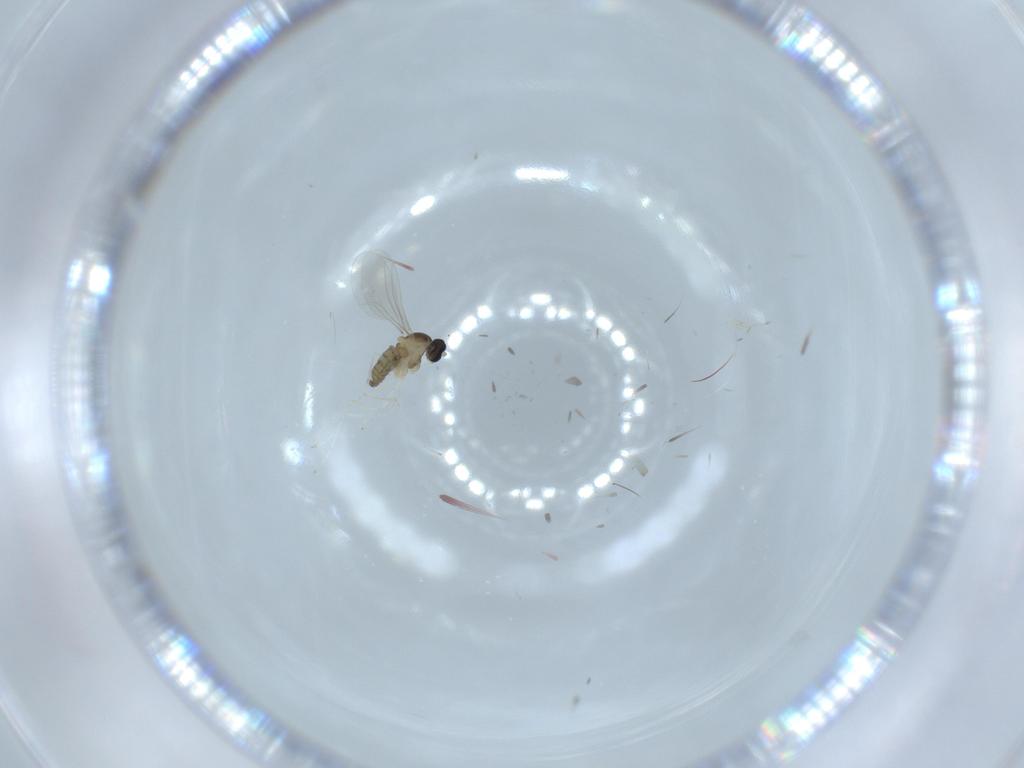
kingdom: Animalia
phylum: Arthropoda
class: Insecta
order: Diptera
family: Cecidomyiidae
